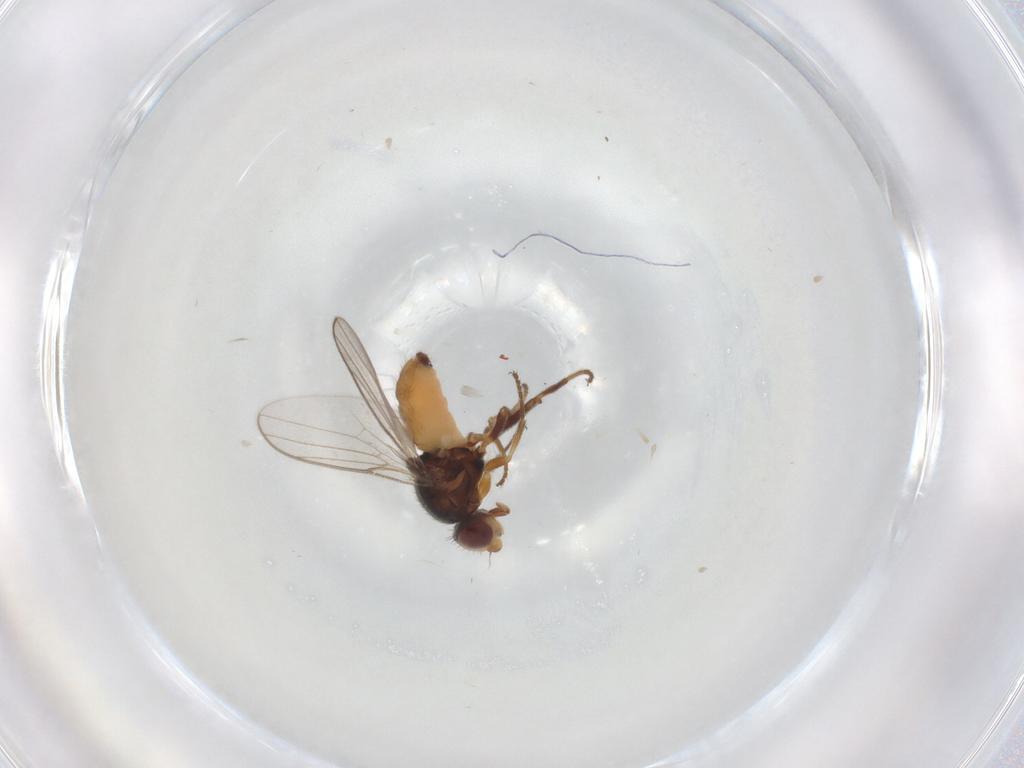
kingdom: Animalia
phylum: Arthropoda
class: Insecta
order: Diptera
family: Chloropidae
